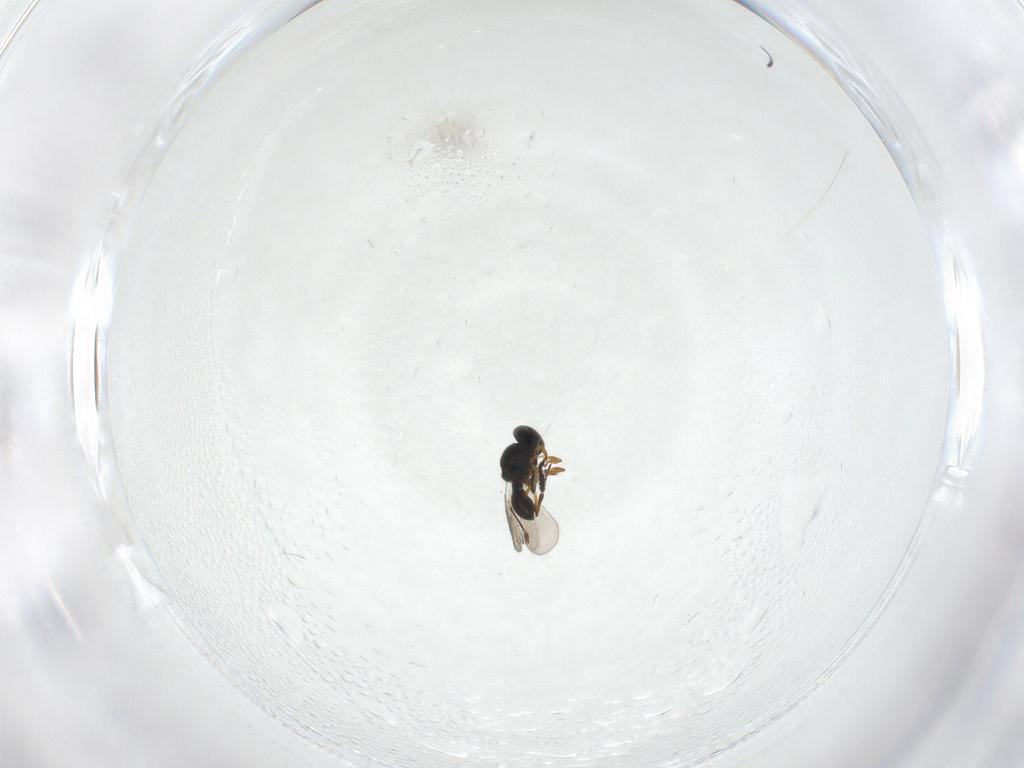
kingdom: Animalia
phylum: Arthropoda
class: Insecta
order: Hymenoptera
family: Platygastridae
